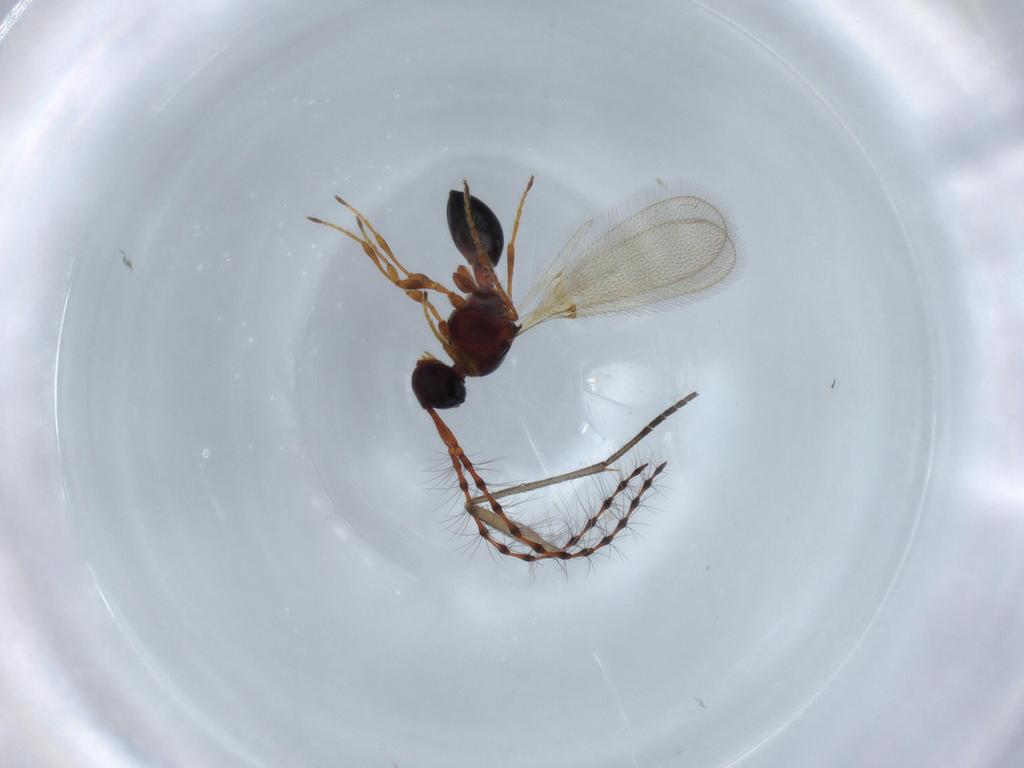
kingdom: Animalia
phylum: Arthropoda
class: Insecta
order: Hymenoptera
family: Diapriidae
